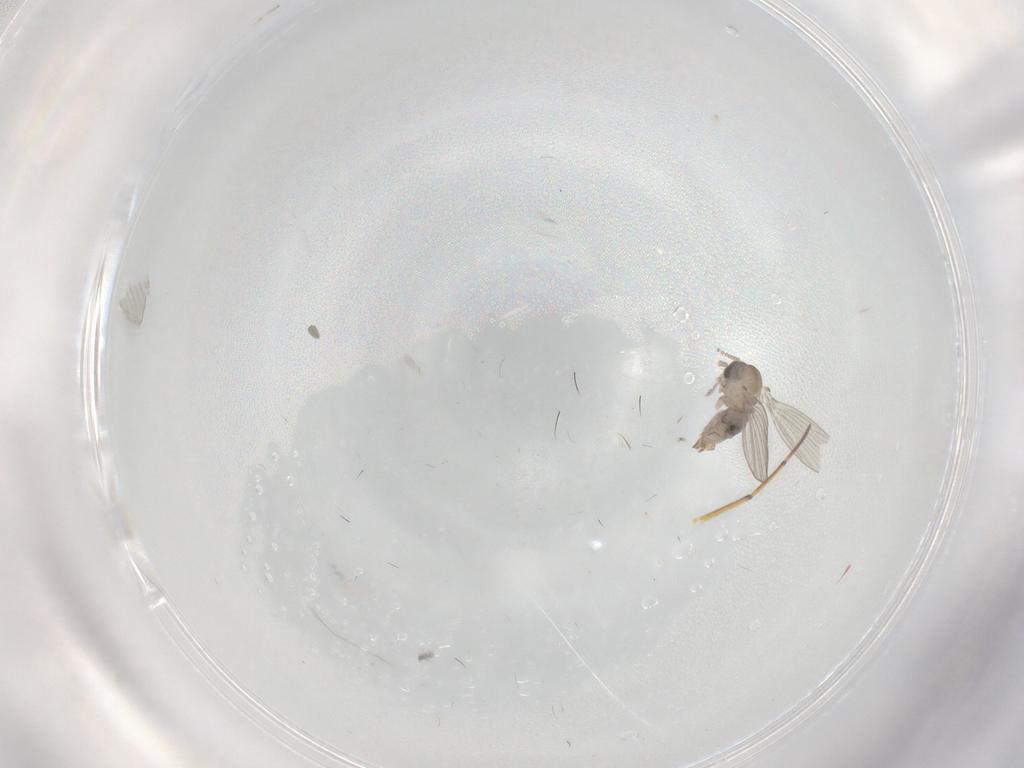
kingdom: Animalia
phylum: Arthropoda
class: Insecta
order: Diptera
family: Psychodidae
